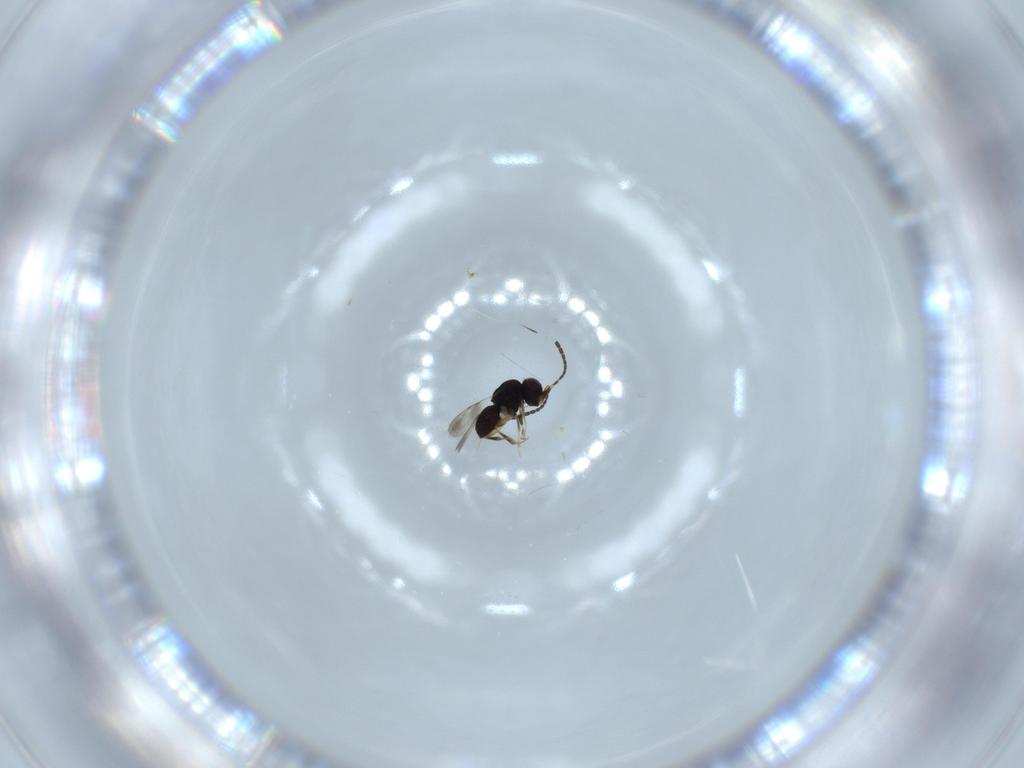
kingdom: Animalia
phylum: Arthropoda
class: Insecta
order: Hymenoptera
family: Ceraphronidae
